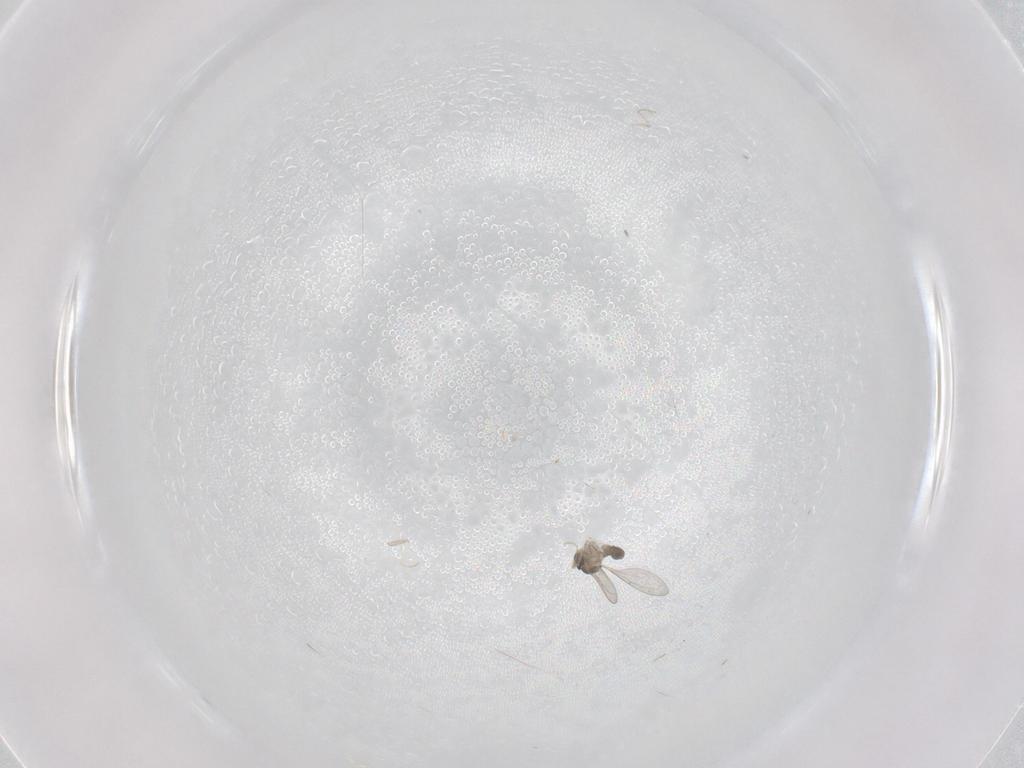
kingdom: Animalia
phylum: Arthropoda
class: Insecta
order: Diptera
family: Cecidomyiidae
